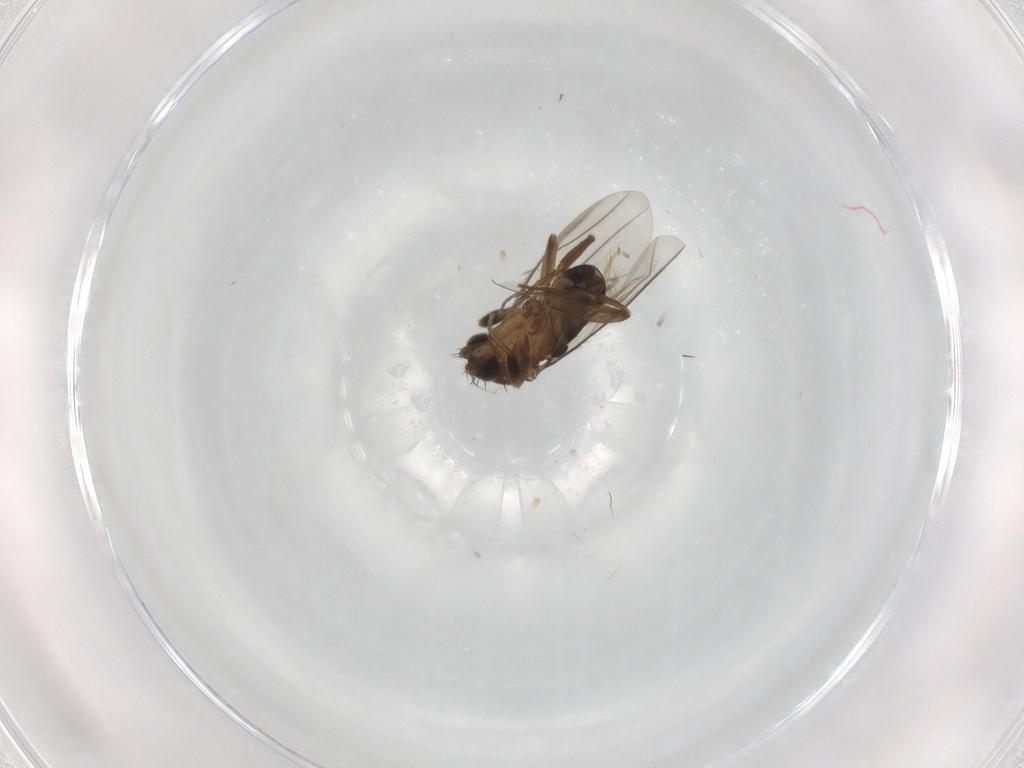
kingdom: Animalia
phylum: Arthropoda
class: Insecta
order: Diptera
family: Phoridae
